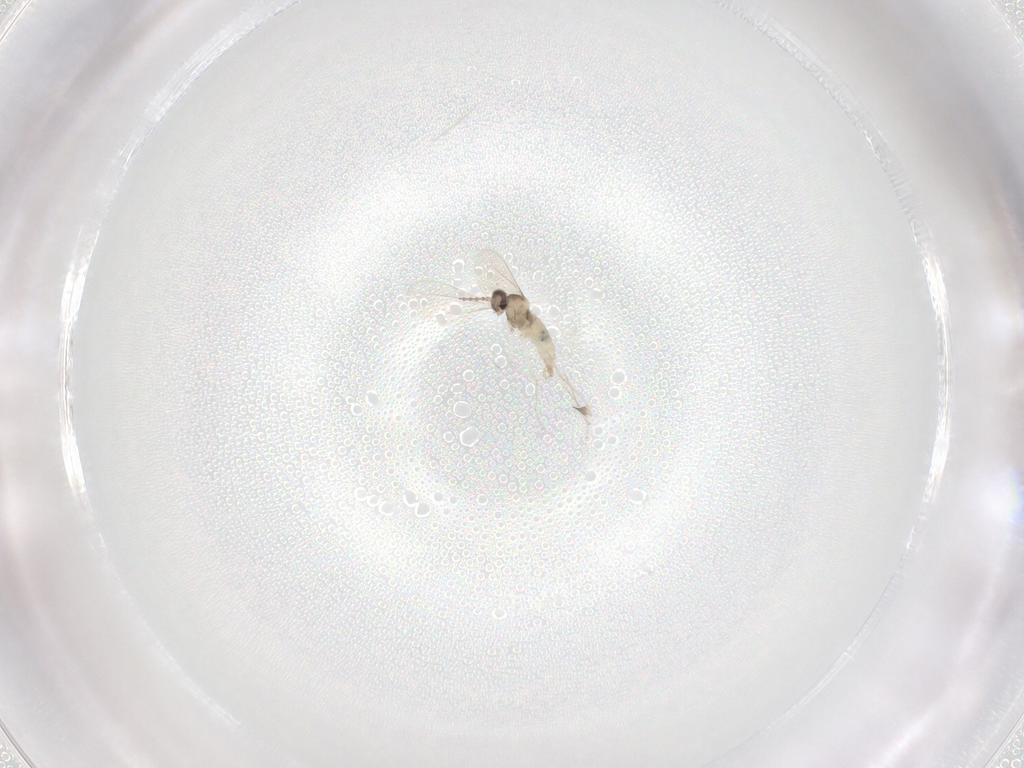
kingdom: Animalia
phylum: Arthropoda
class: Insecta
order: Diptera
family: Cecidomyiidae
